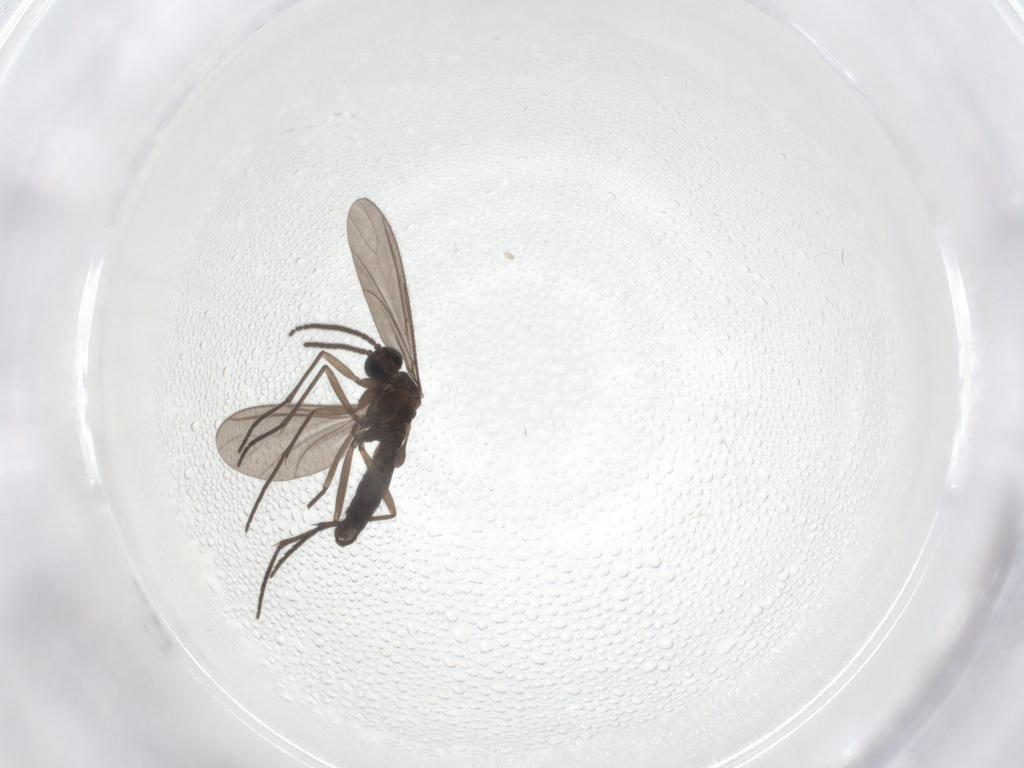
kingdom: Animalia
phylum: Arthropoda
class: Insecta
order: Diptera
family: Sciaridae
